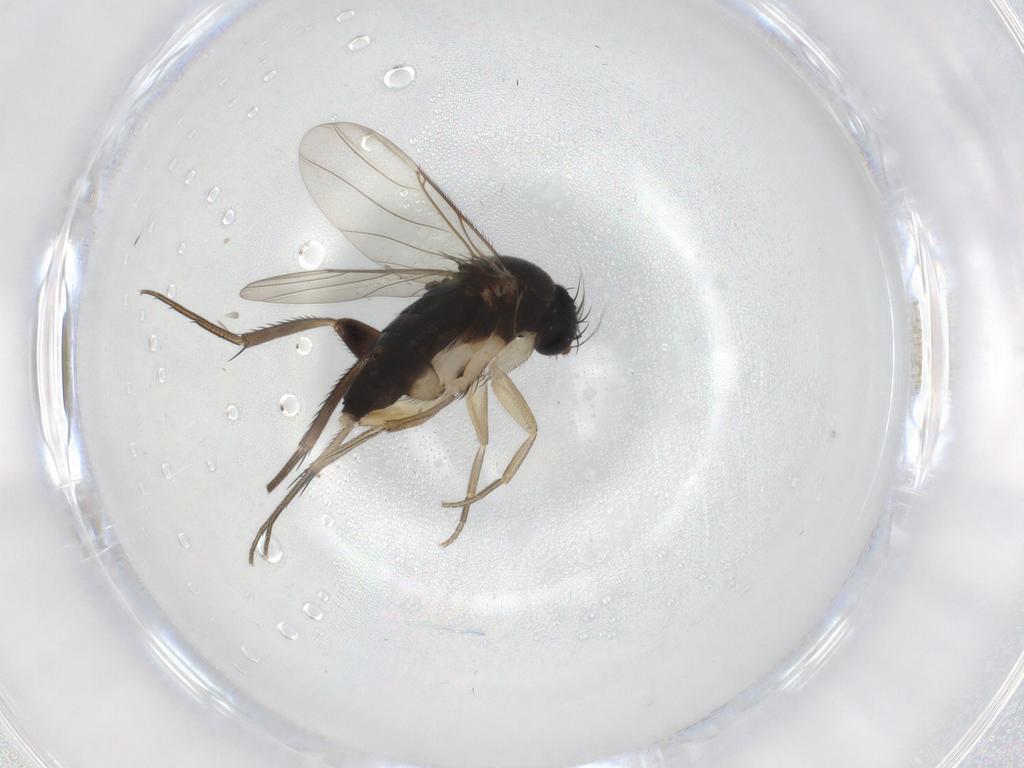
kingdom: Animalia
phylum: Arthropoda
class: Insecta
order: Diptera
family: Phoridae
